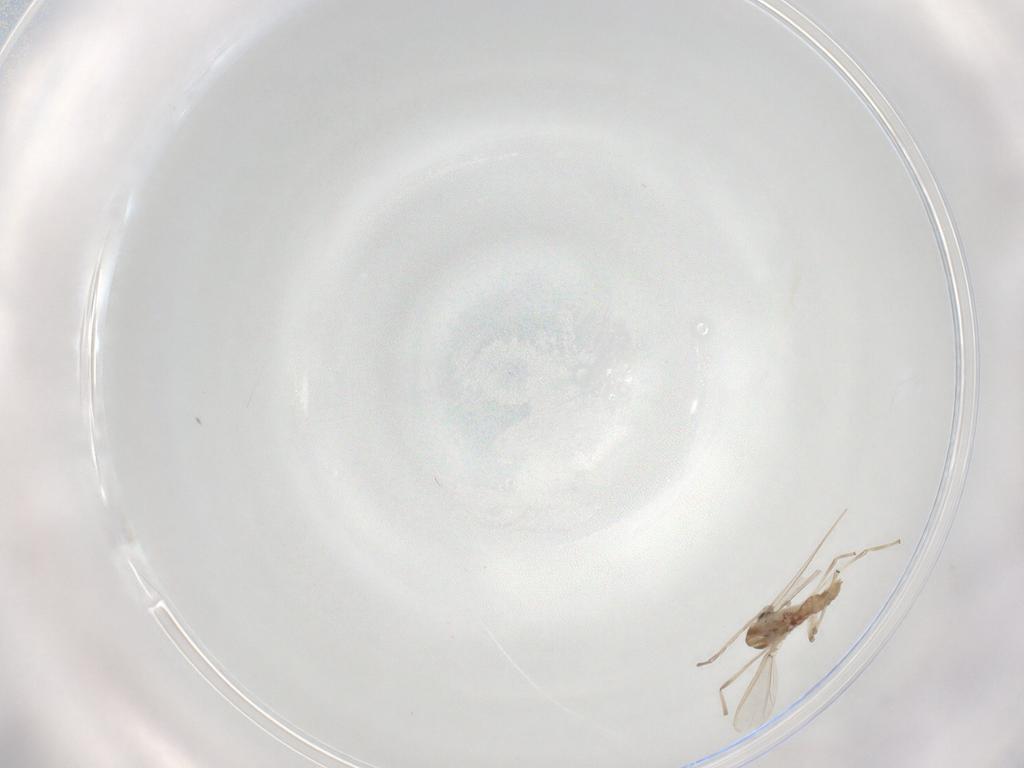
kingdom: Animalia
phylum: Arthropoda
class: Insecta
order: Diptera
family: Chironomidae
